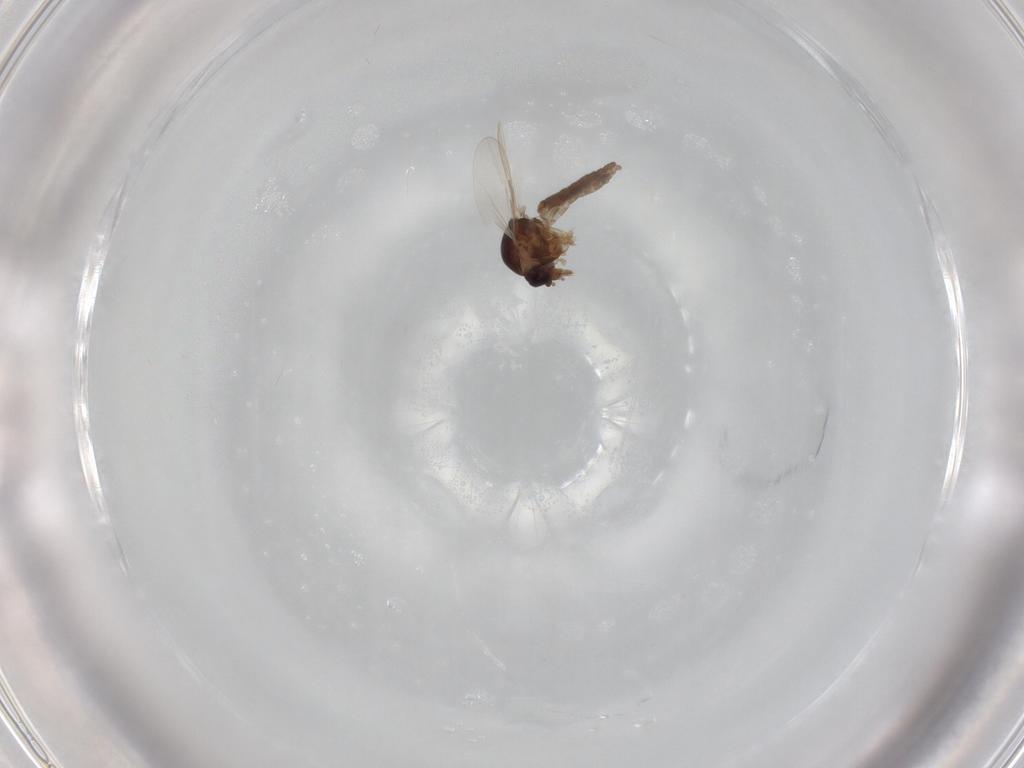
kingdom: Animalia
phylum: Arthropoda
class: Insecta
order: Diptera
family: Ceratopogonidae
